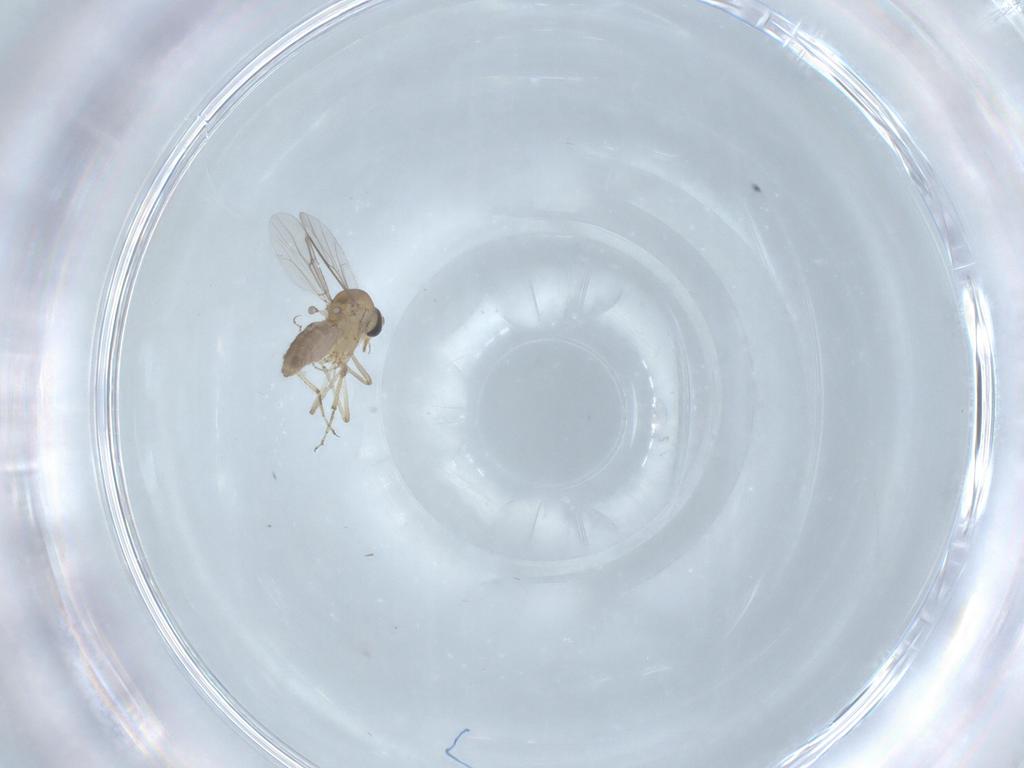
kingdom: Animalia
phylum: Arthropoda
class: Insecta
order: Diptera
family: Ceratopogonidae
